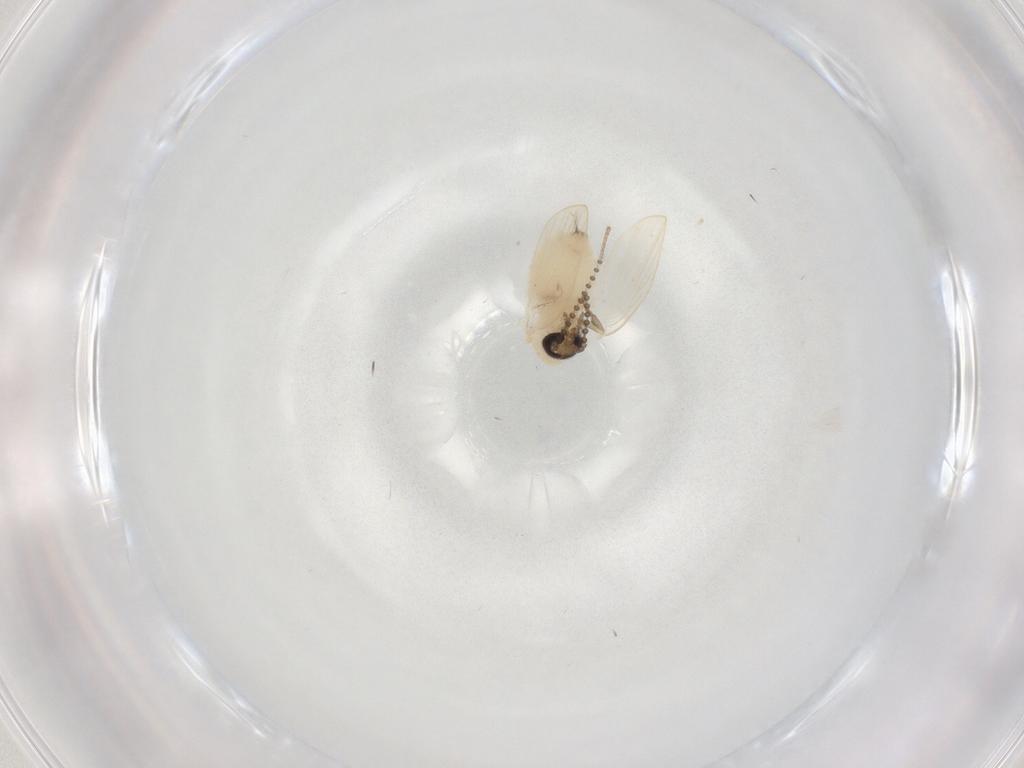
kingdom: Animalia
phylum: Arthropoda
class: Insecta
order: Diptera
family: Psychodidae
